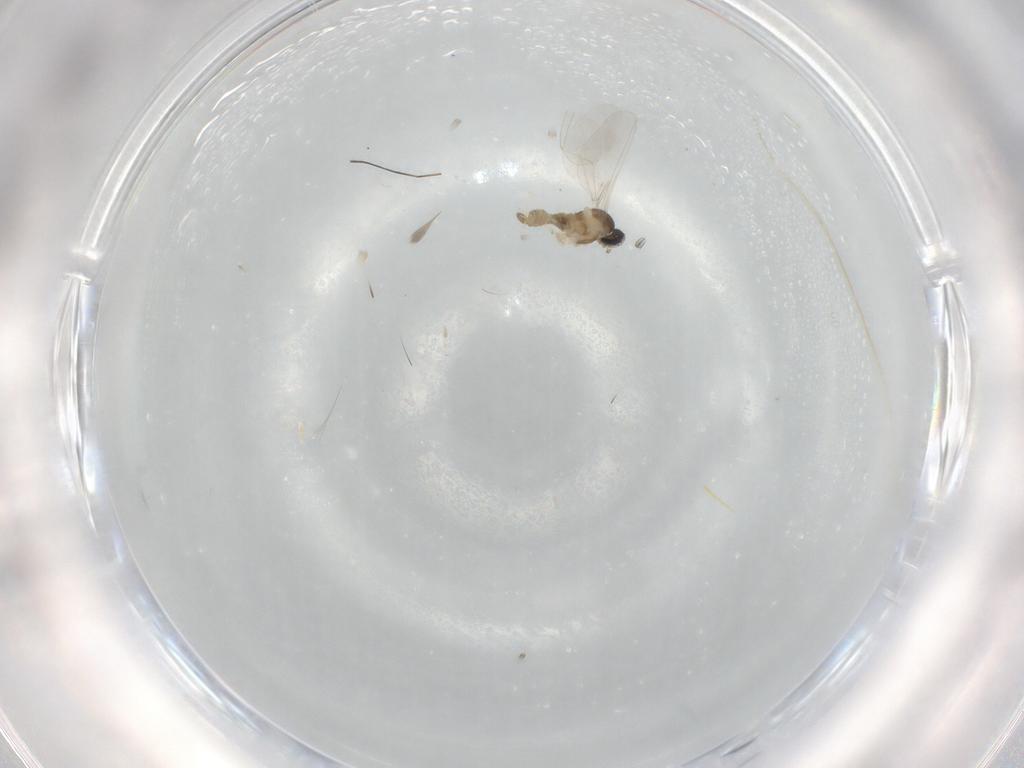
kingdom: Animalia
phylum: Arthropoda
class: Insecta
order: Diptera
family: Cecidomyiidae
